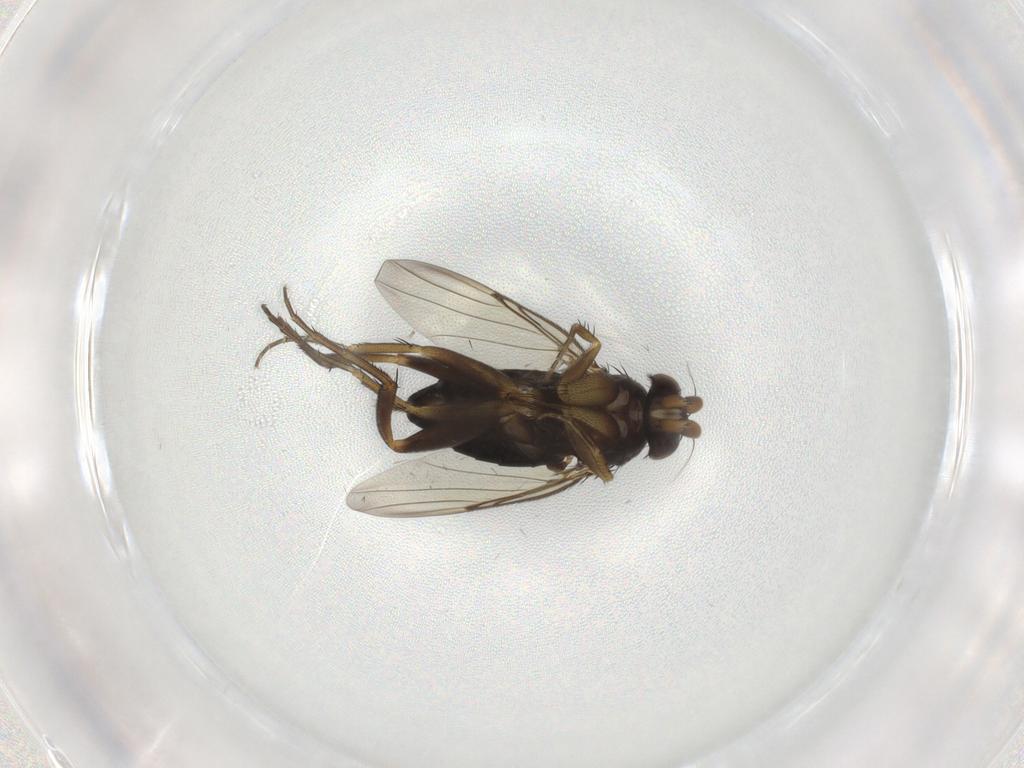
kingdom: Animalia
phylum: Arthropoda
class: Insecta
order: Diptera
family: Phoridae
